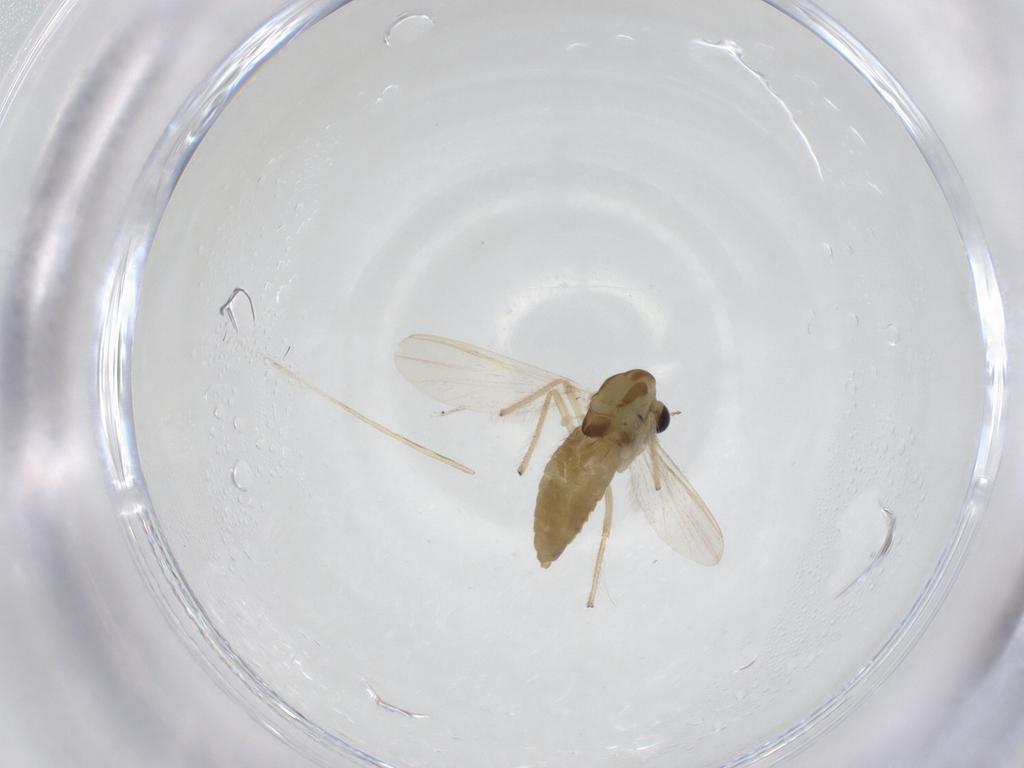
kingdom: Animalia
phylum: Arthropoda
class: Insecta
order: Diptera
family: Chironomidae
